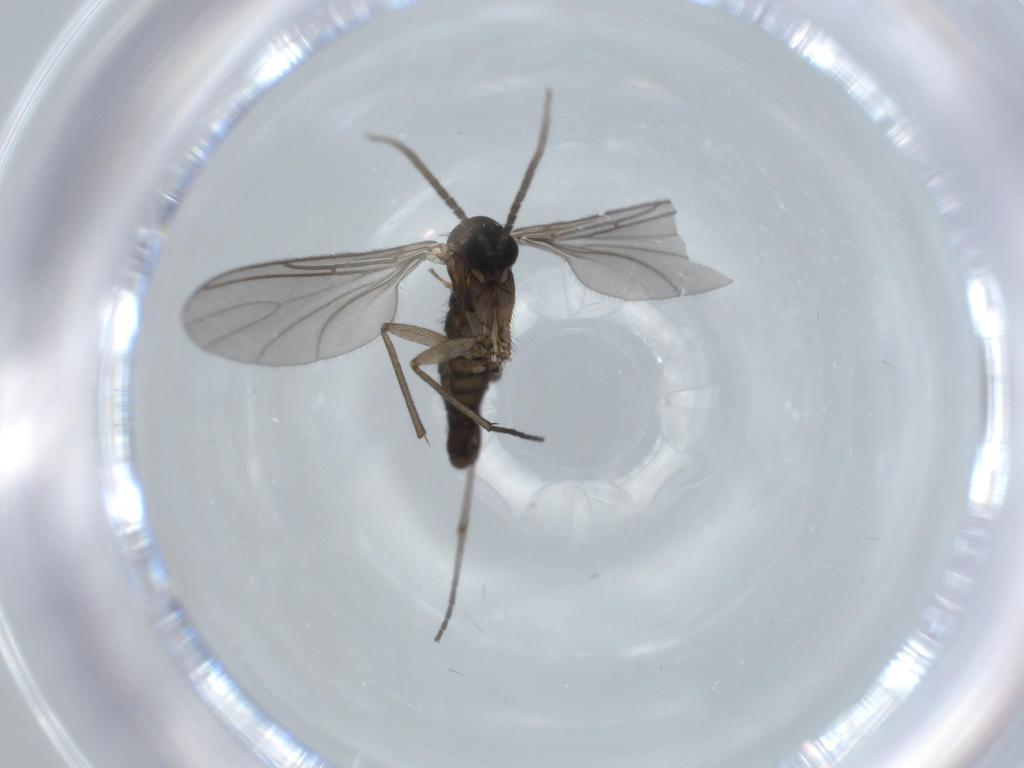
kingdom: Animalia
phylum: Arthropoda
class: Insecta
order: Diptera
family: Sciaridae
